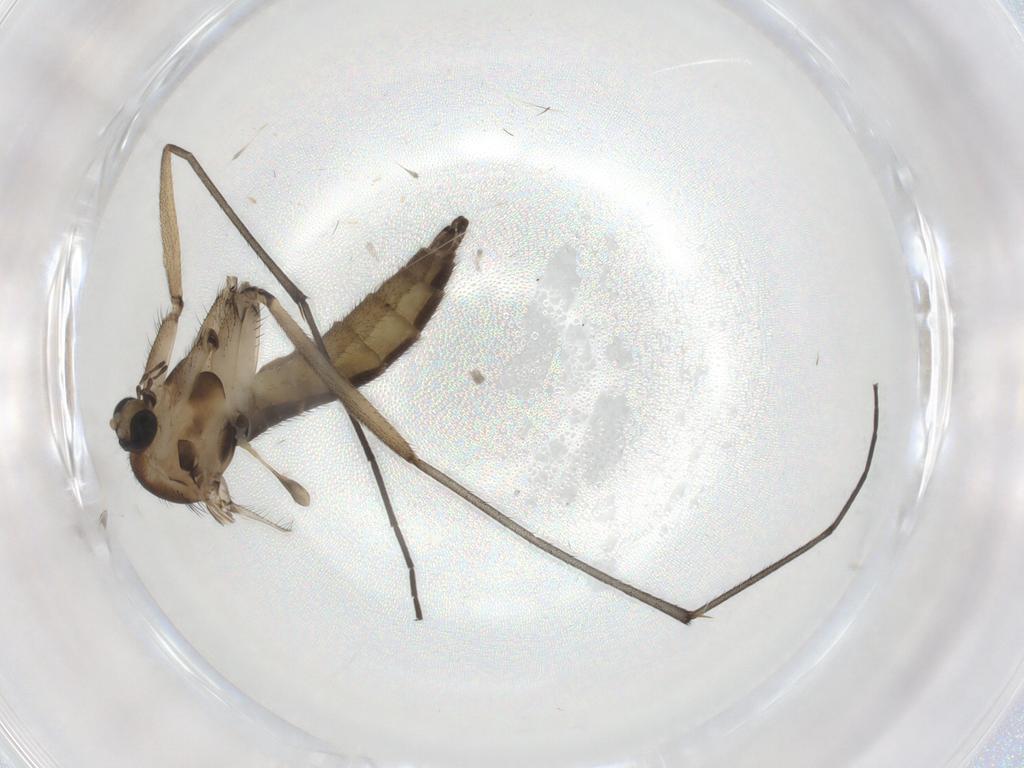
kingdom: Animalia
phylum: Arthropoda
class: Insecta
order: Diptera
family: Sciaridae
